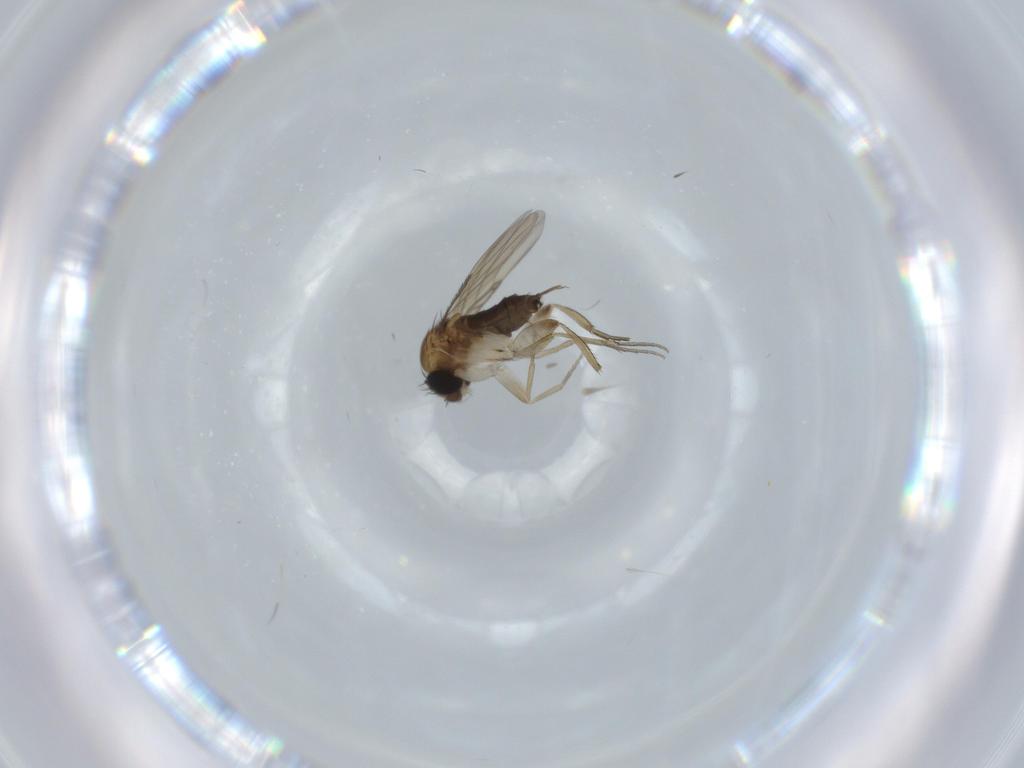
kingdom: Animalia
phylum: Arthropoda
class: Insecta
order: Diptera
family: Phoridae
